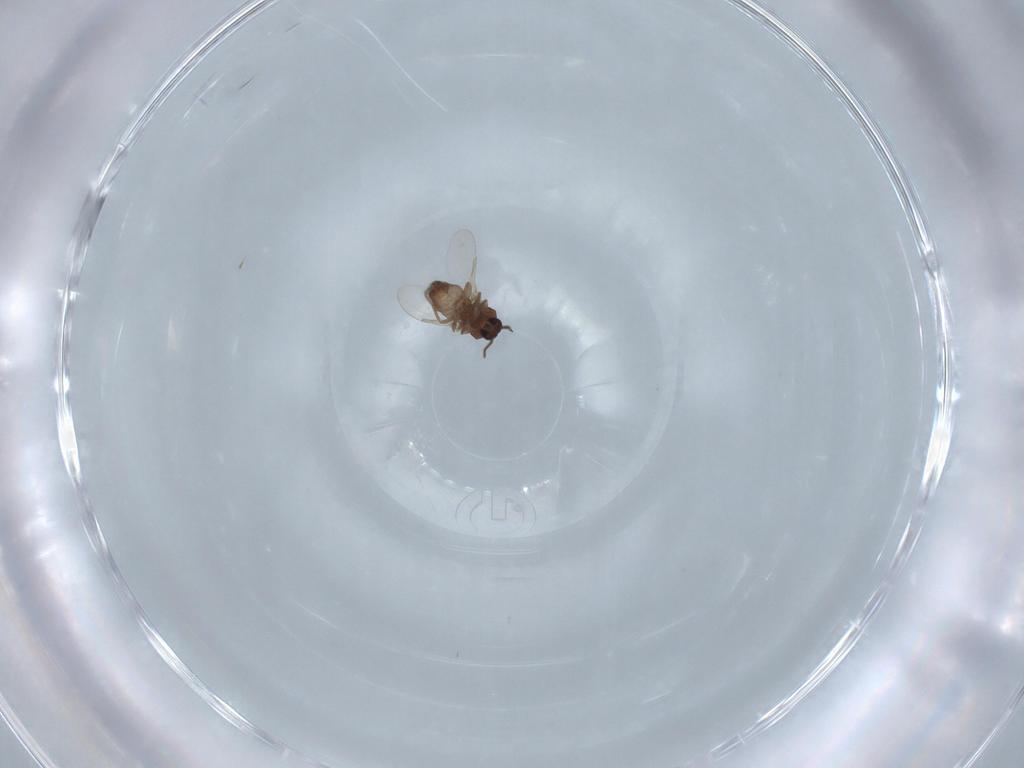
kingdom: Animalia
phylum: Arthropoda
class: Insecta
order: Diptera
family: Ceratopogonidae
